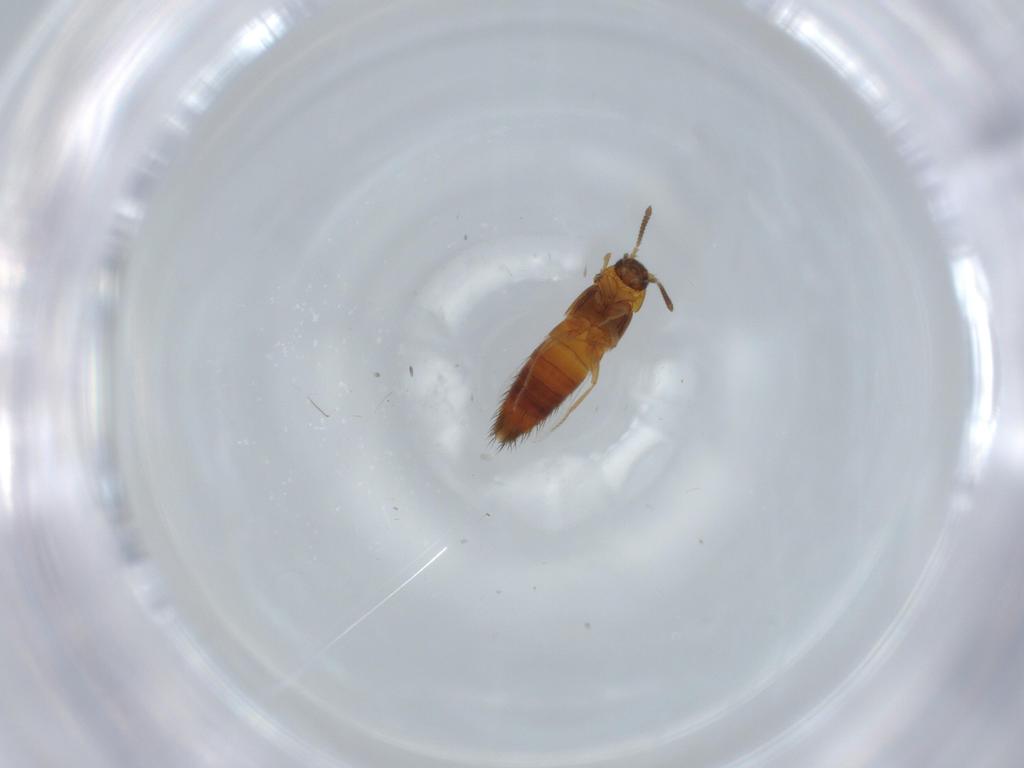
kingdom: Animalia
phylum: Arthropoda
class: Insecta
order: Coleoptera
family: Staphylinidae
